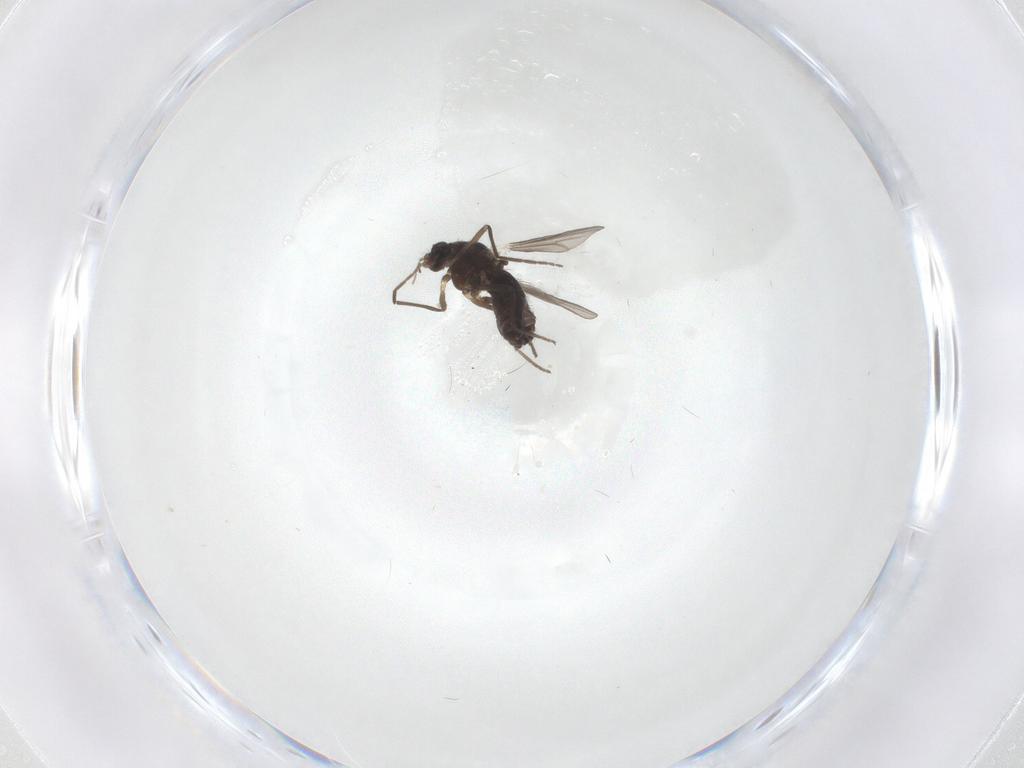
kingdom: Animalia
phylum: Arthropoda
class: Insecta
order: Diptera
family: Chironomidae
